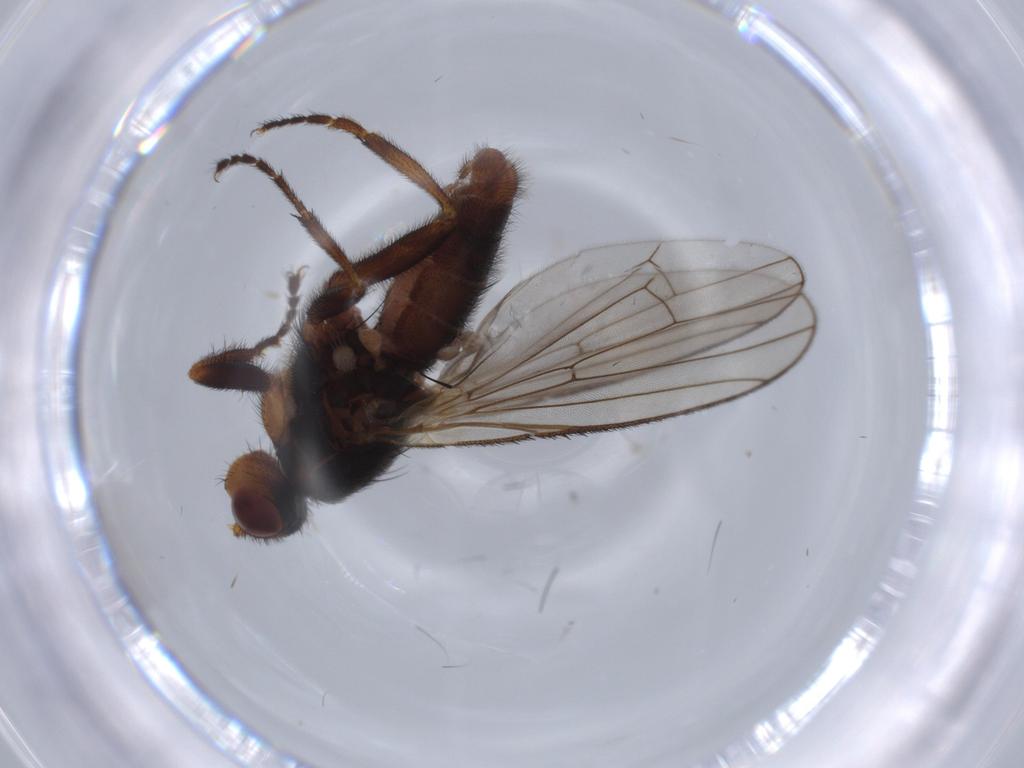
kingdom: Animalia
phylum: Arthropoda
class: Insecta
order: Diptera
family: Heleomyzidae
